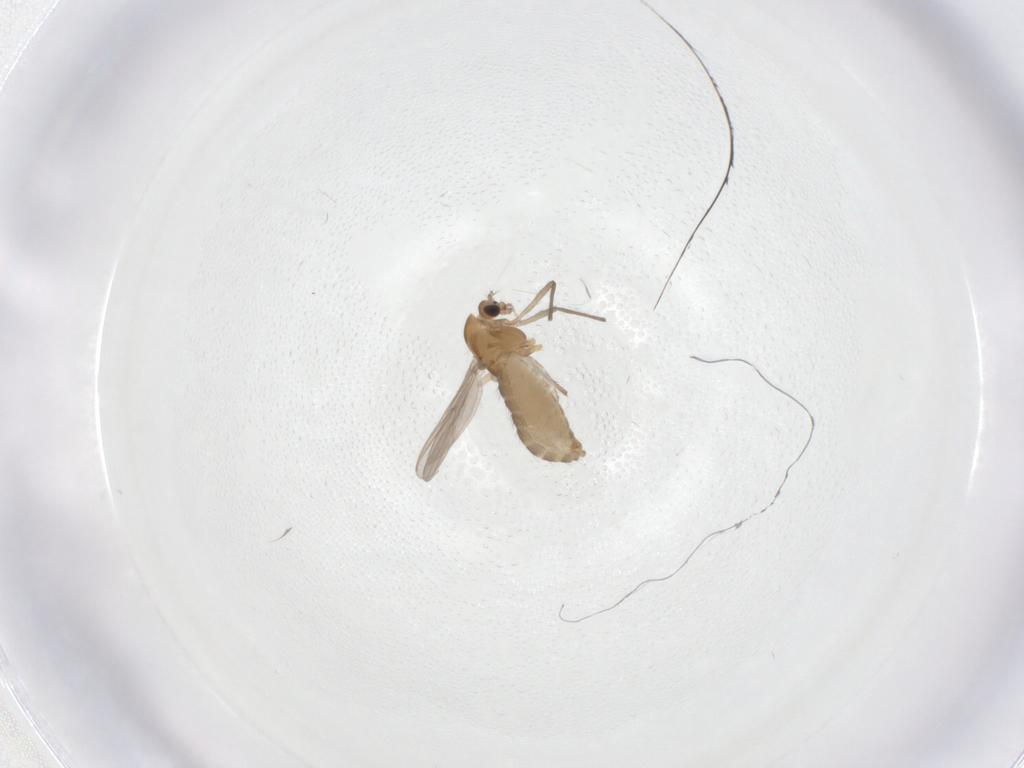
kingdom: Animalia
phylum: Arthropoda
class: Insecta
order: Diptera
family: Chironomidae
